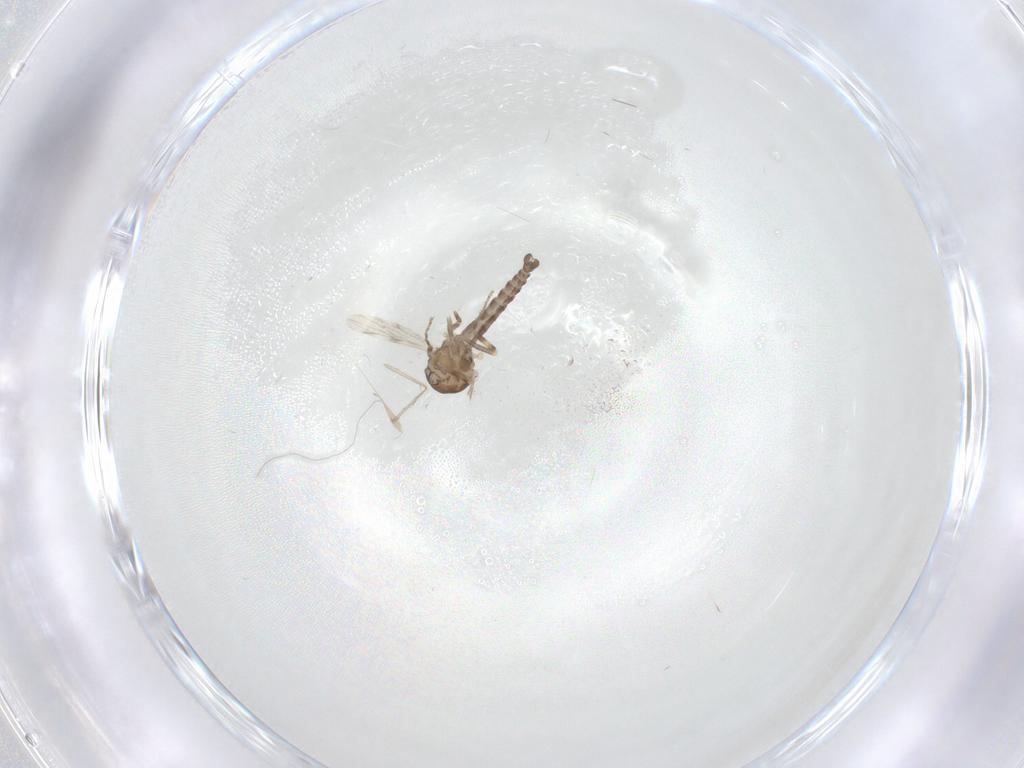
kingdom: Animalia
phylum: Arthropoda
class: Insecta
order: Diptera
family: Ceratopogonidae
